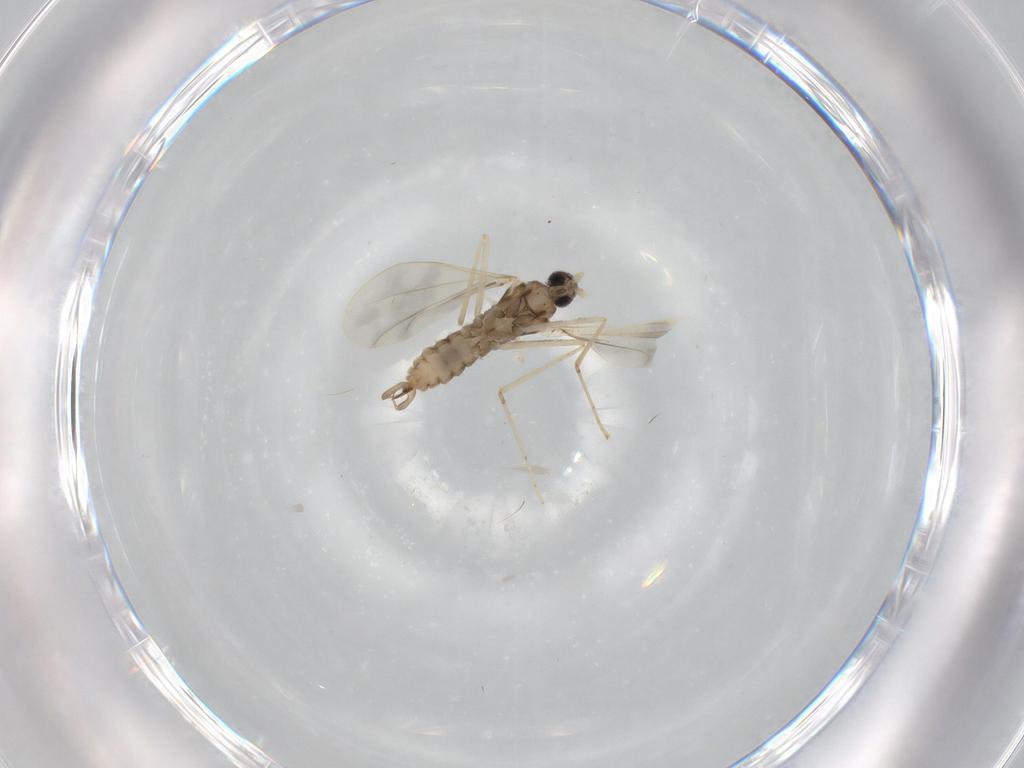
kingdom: Animalia
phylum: Arthropoda
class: Insecta
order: Diptera
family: Cecidomyiidae
